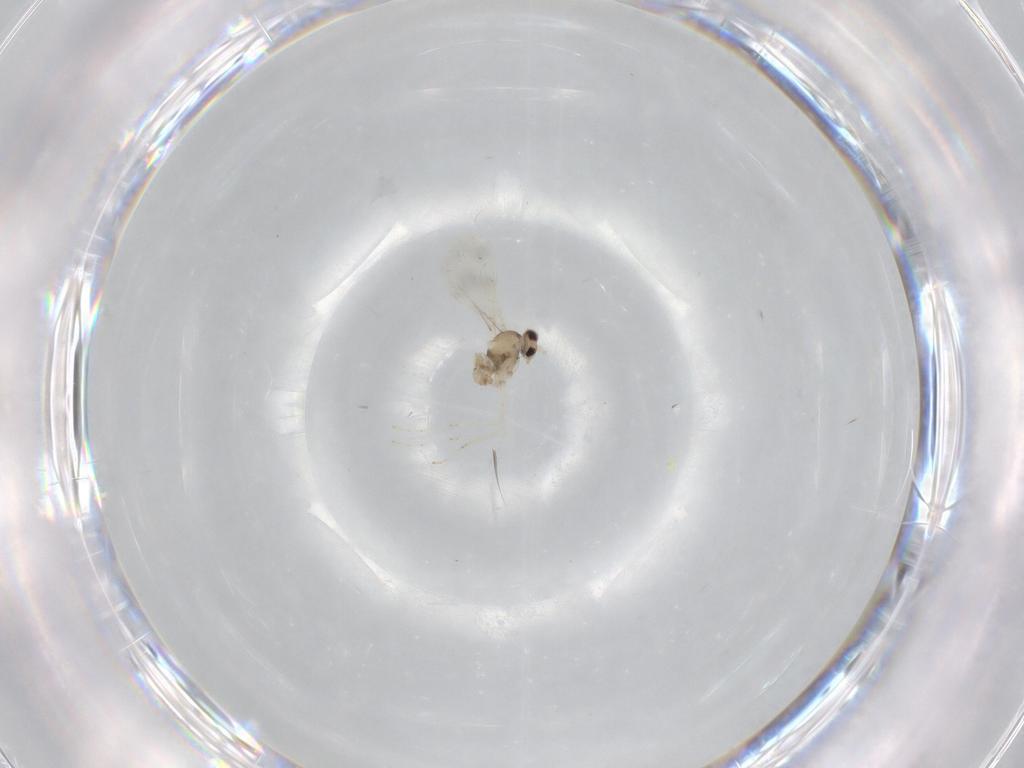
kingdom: Animalia
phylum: Arthropoda
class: Insecta
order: Diptera
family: Cecidomyiidae
